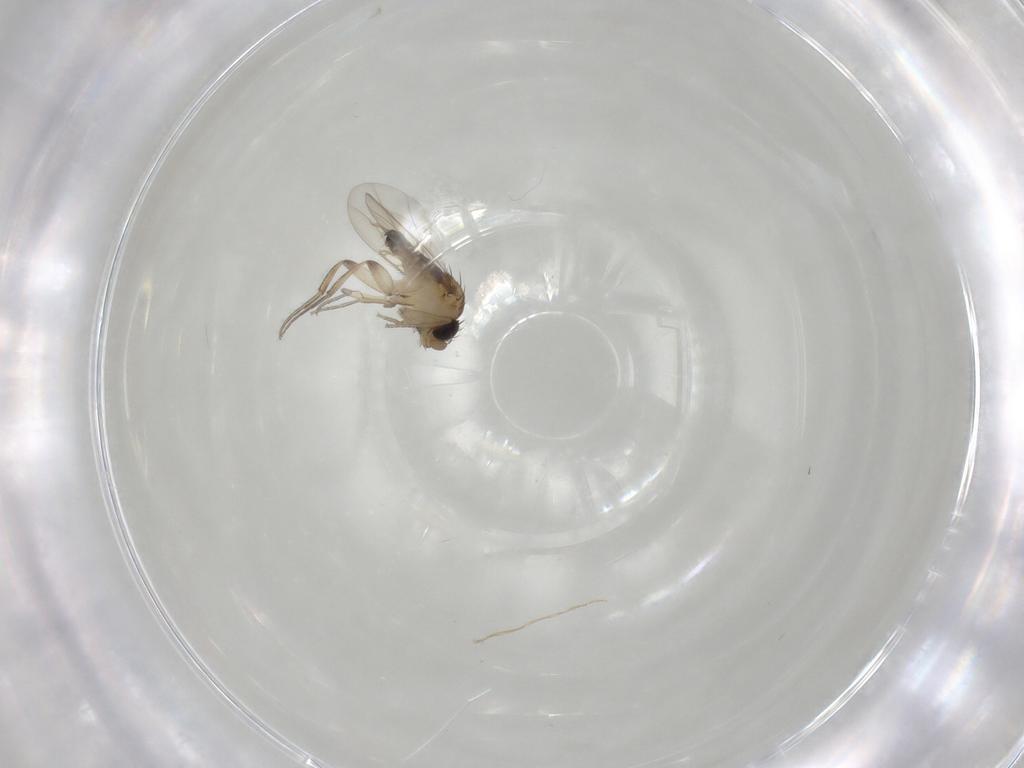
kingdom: Animalia
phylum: Arthropoda
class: Insecta
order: Diptera
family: Phoridae
